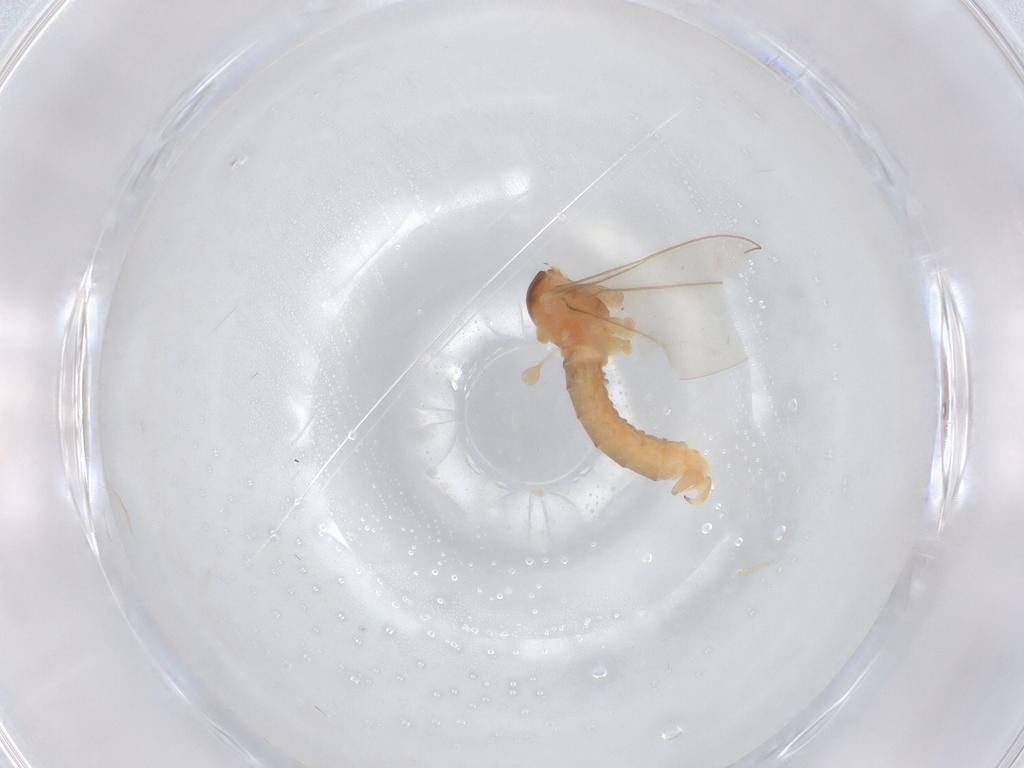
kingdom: Animalia
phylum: Arthropoda
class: Insecta
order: Diptera
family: Cecidomyiidae
